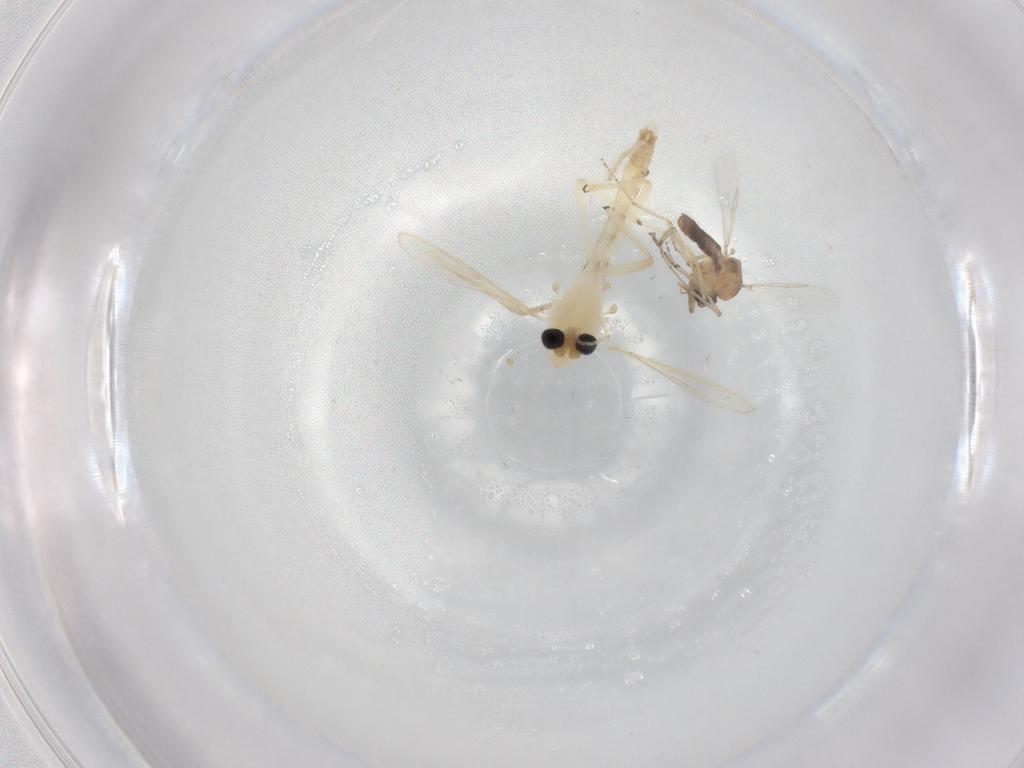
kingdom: Animalia
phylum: Arthropoda
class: Insecta
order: Diptera
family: Chironomidae
